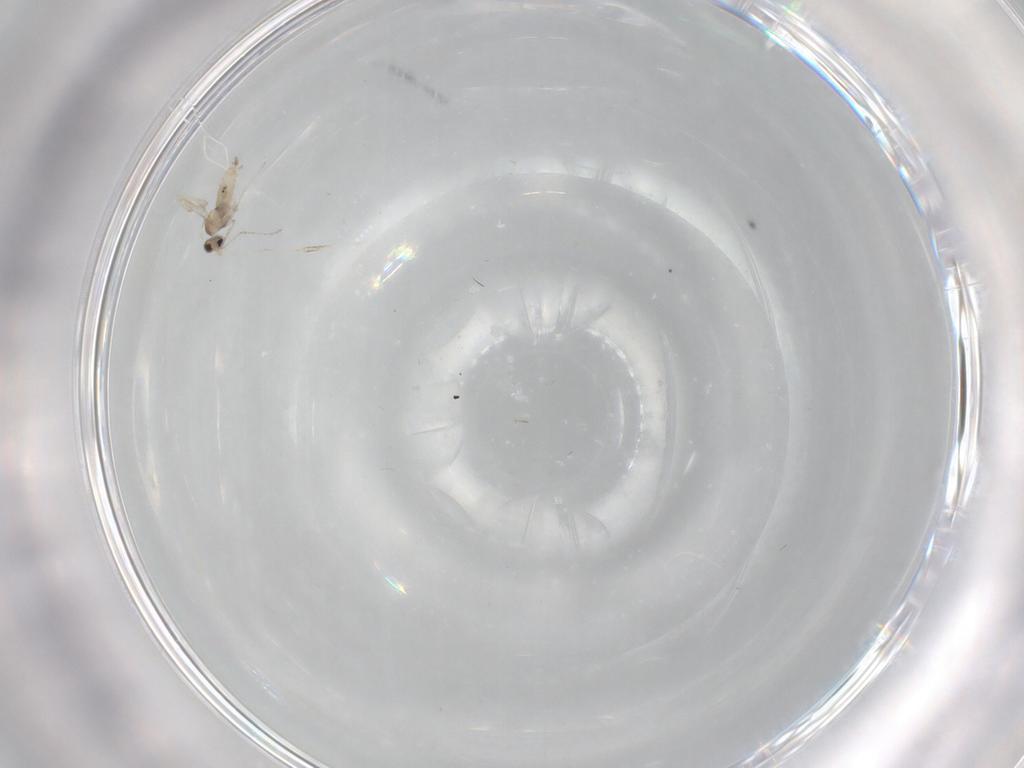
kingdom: Animalia
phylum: Arthropoda
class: Insecta
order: Diptera
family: Cecidomyiidae
